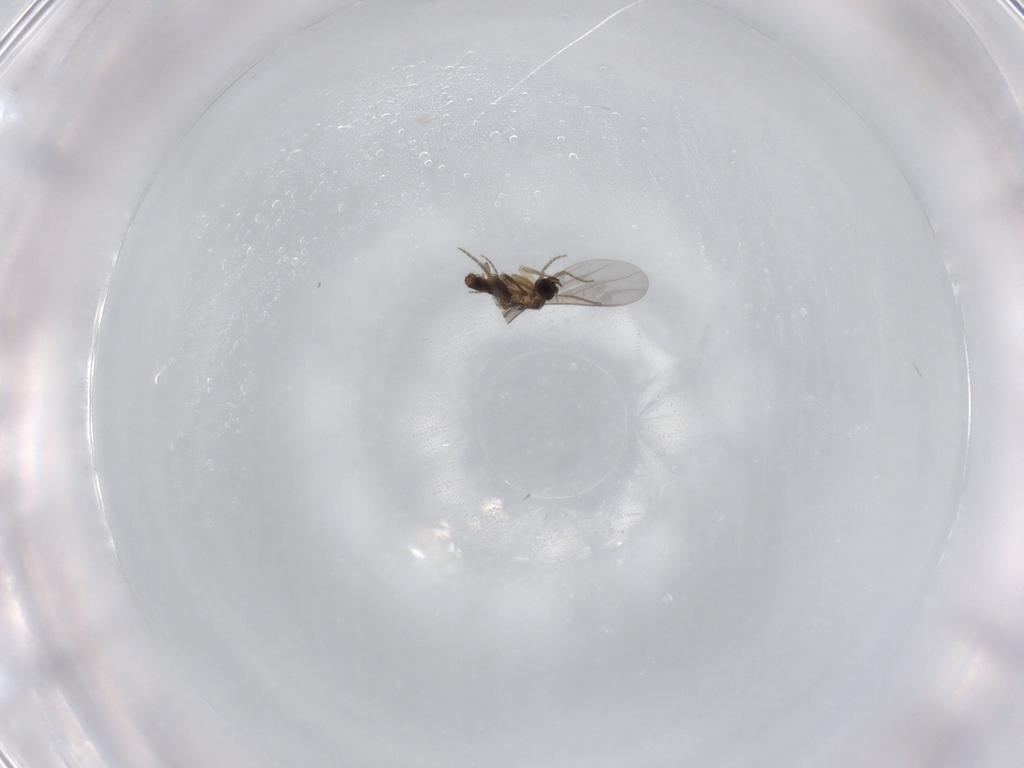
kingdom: Animalia
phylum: Arthropoda
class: Insecta
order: Diptera
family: Phoridae
